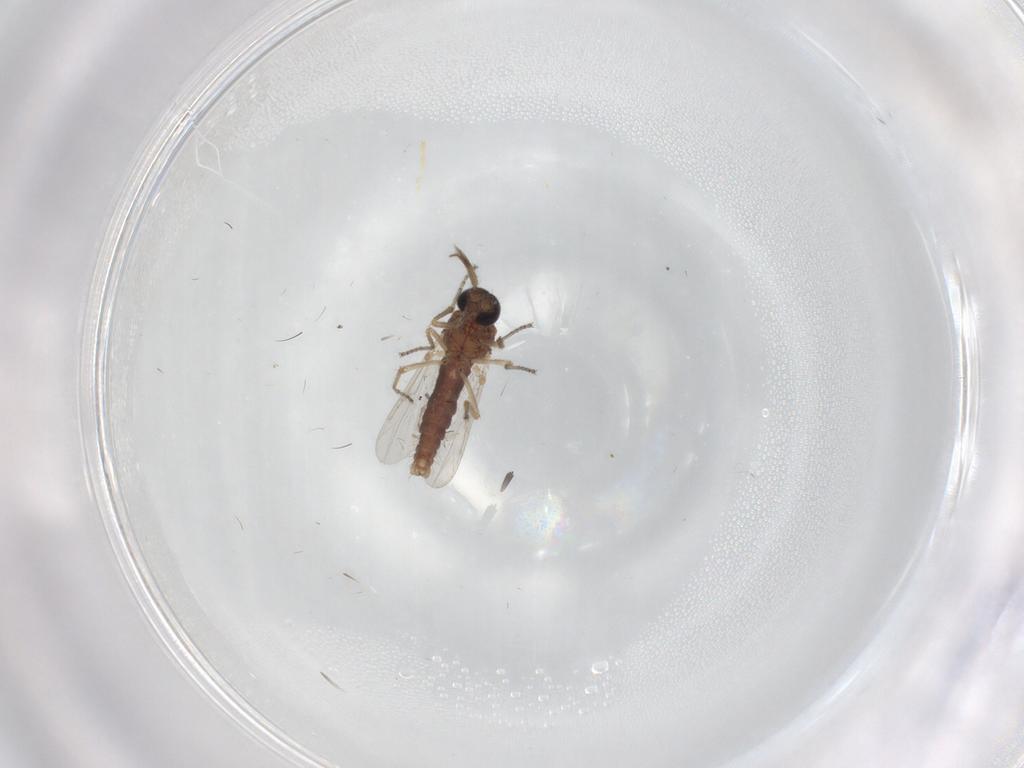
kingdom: Animalia
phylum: Arthropoda
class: Insecta
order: Diptera
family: Ceratopogonidae
